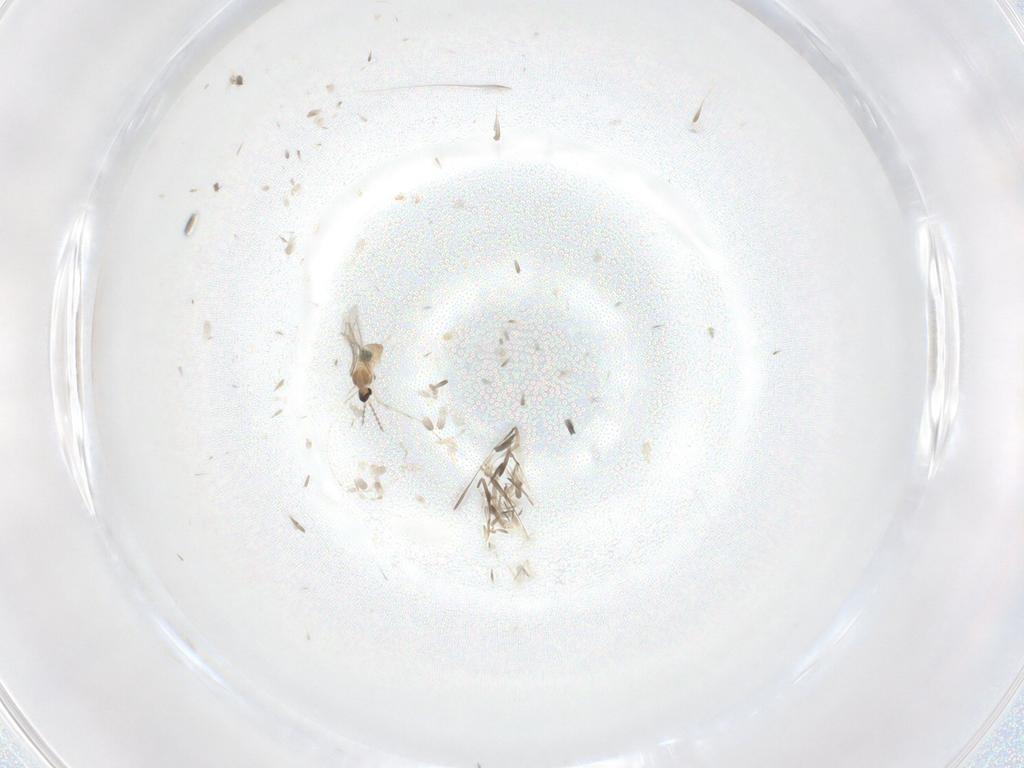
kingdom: Animalia
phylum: Arthropoda
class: Insecta
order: Diptera
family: Cecidomyiidae
